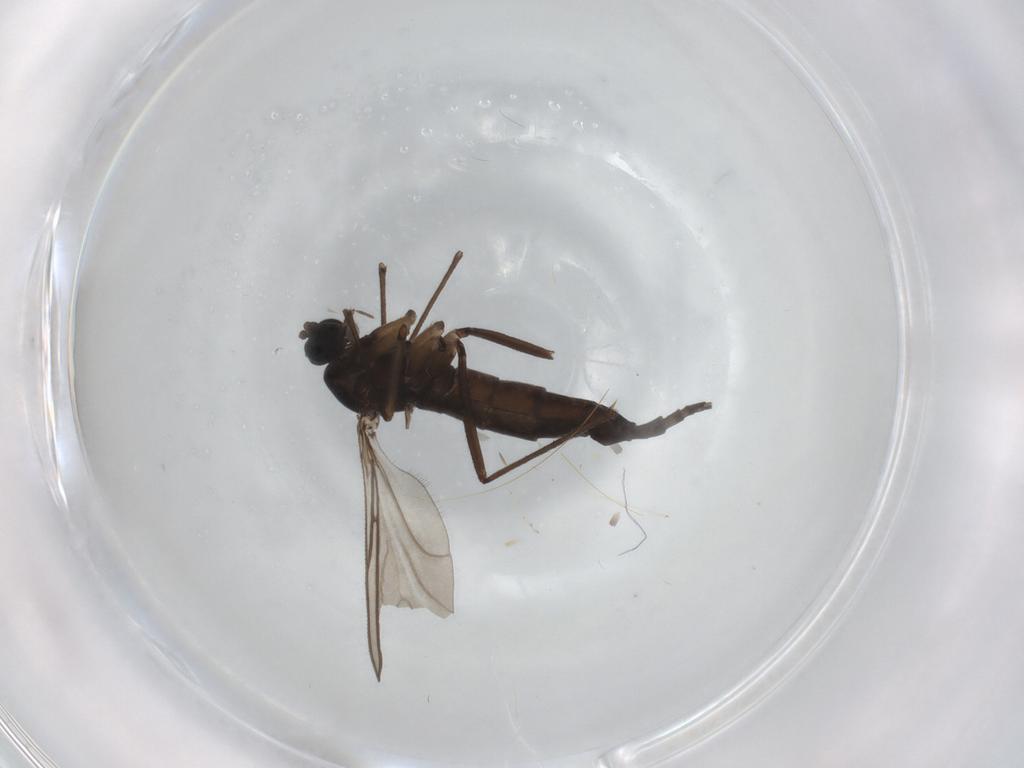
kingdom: Animalia
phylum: Arthropoda
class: Insecta
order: Diptera
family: Sciaridae
